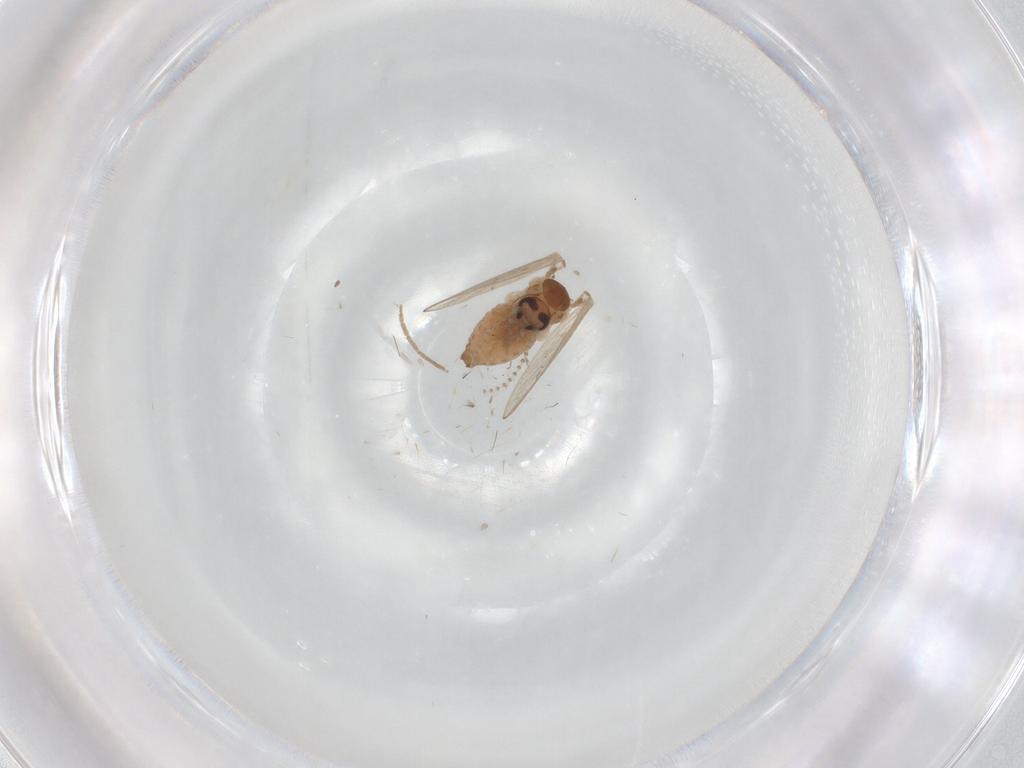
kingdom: Animalia
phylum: Arthropoda
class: Insecta
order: Diptera
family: Psychodidae
